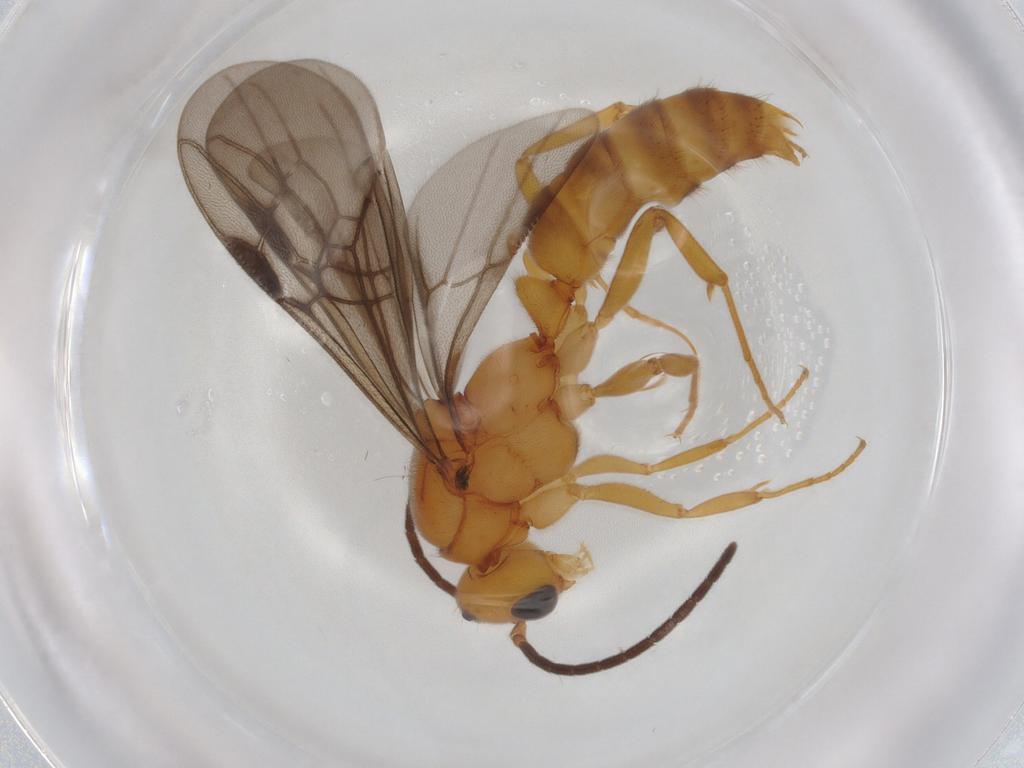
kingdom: Animalia
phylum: Arthropoda
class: Insecta
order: Hymenoptera
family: Formicidae
